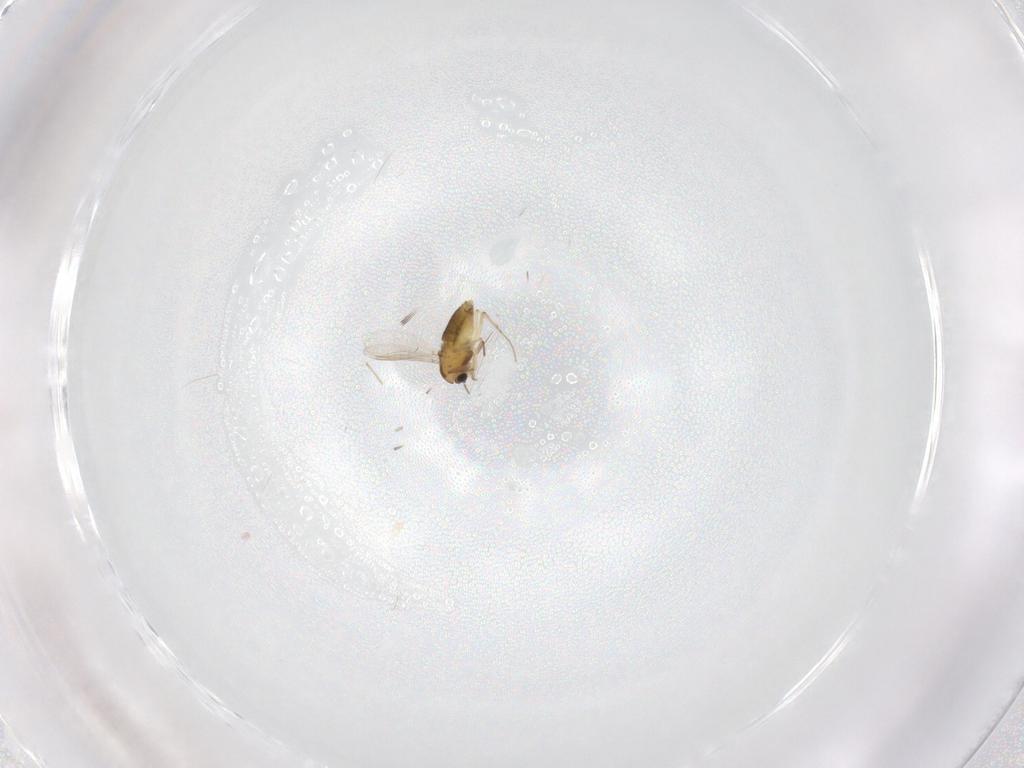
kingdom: Animalia
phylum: Arthropoda
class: Insecta
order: Diptera
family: Chironomidae
